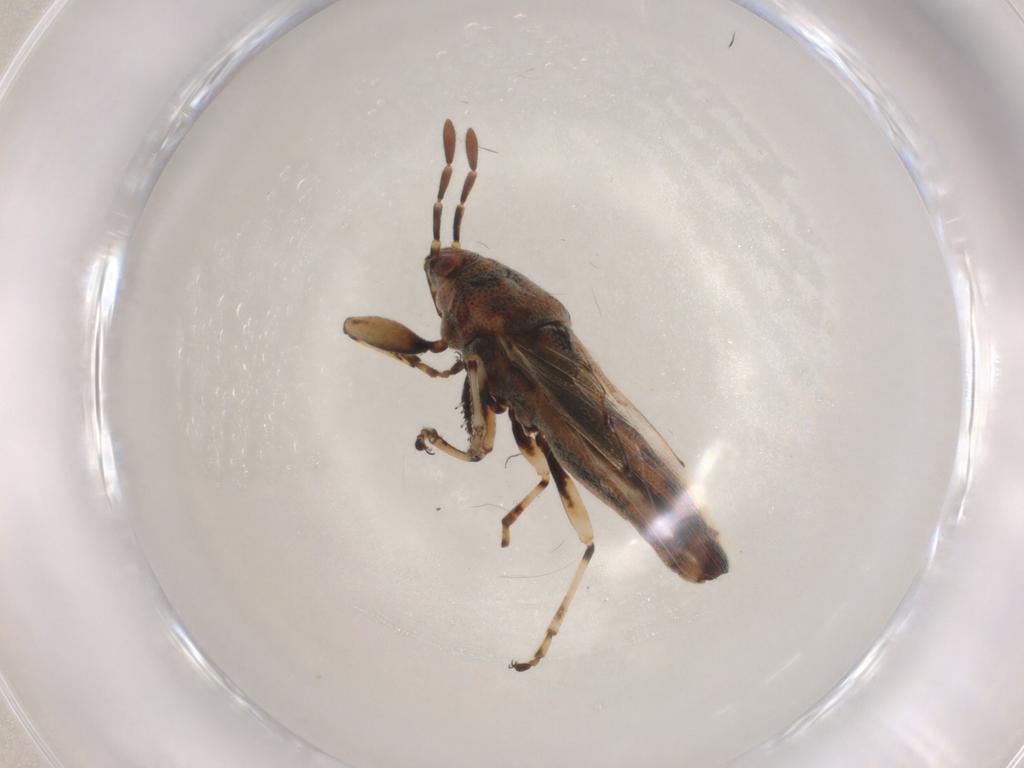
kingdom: Animalia
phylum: Arthropoda
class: Insecta
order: Hemiptera
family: Pachygronthidae
